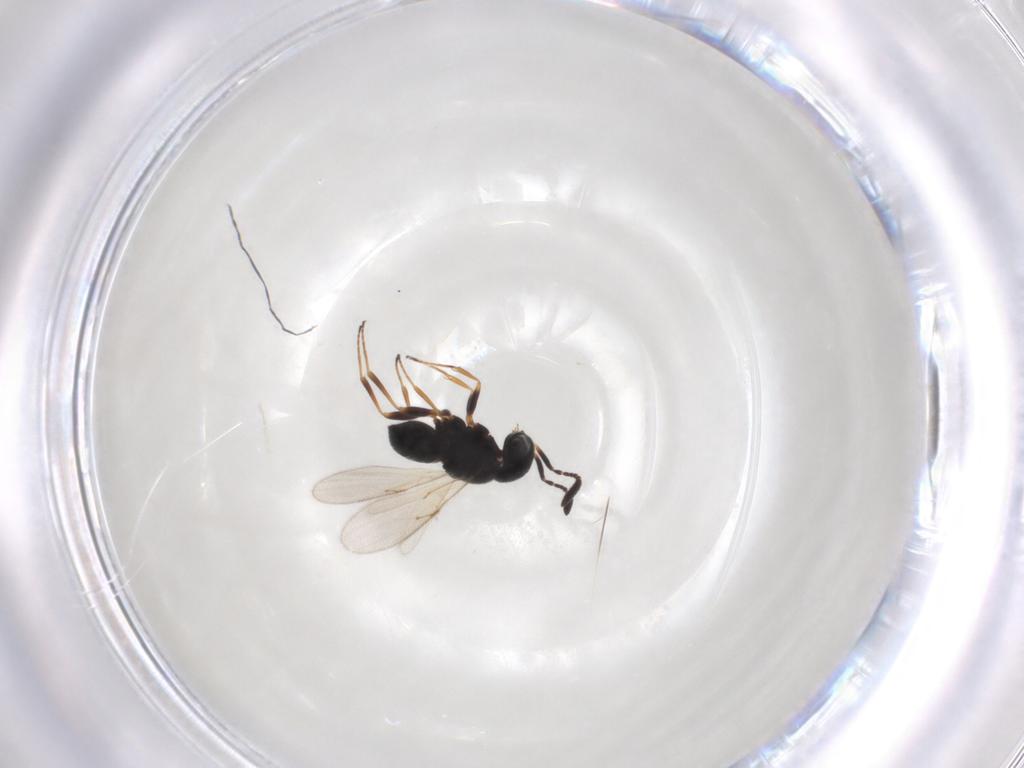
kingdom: Animalia
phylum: Arthropoda
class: Insecta
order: Hymenoptera
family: Scelionidae
